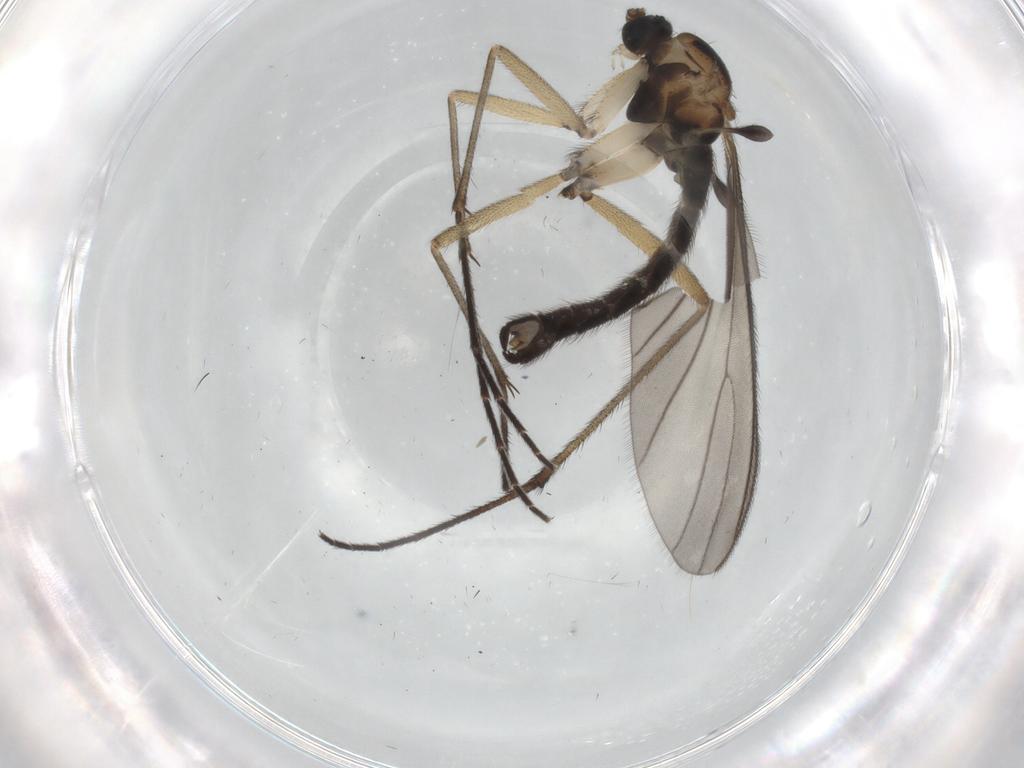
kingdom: Animalia
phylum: Arthropoda
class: Insecta
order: Diptera
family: Sciaridae
